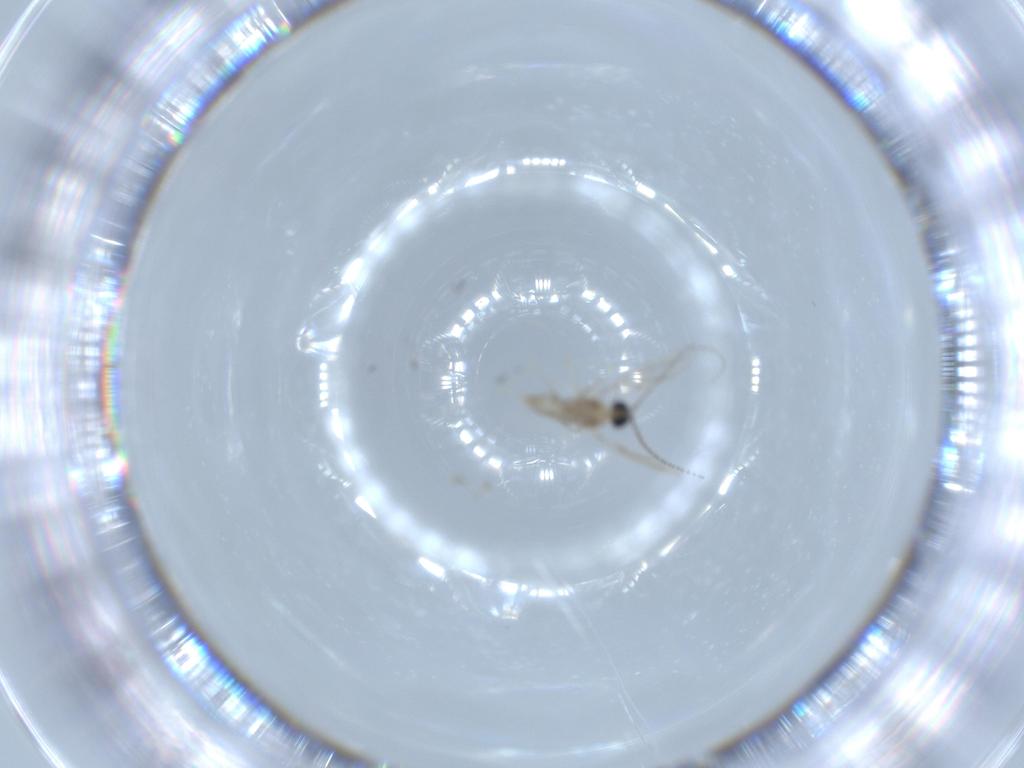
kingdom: Animalia
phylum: Arthropoda
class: Insecta
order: Diptera
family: Cecidomyiidae
